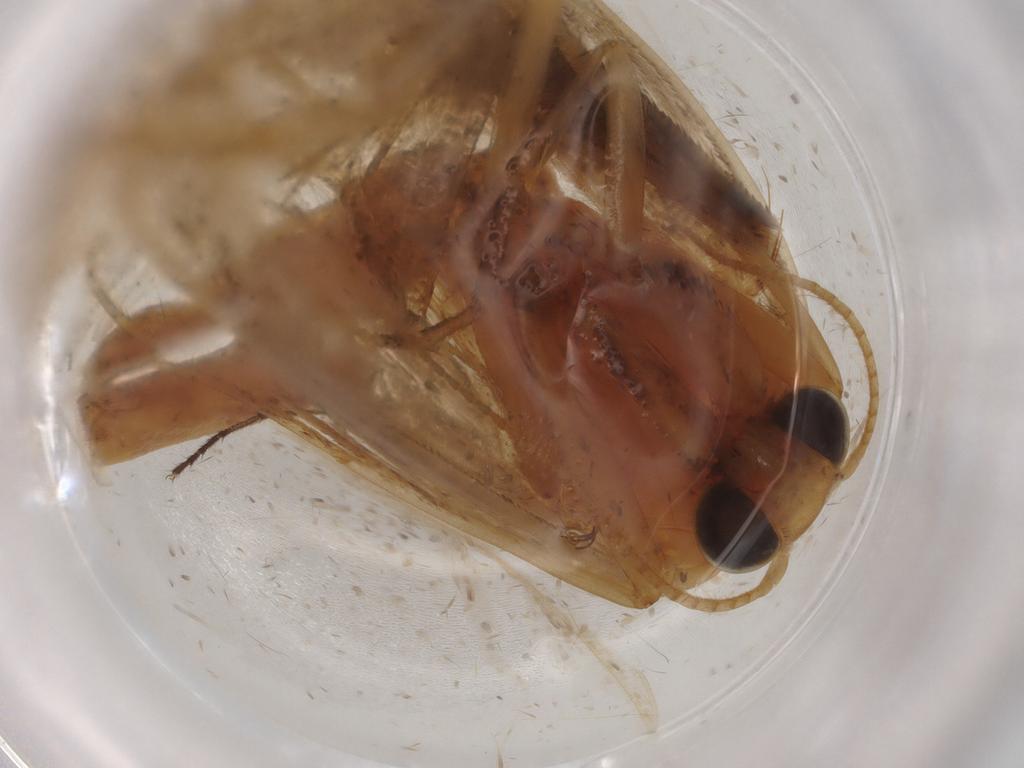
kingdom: Animalia
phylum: Arthropoda
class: Insecta
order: Lepidoptera
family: Nolidae
